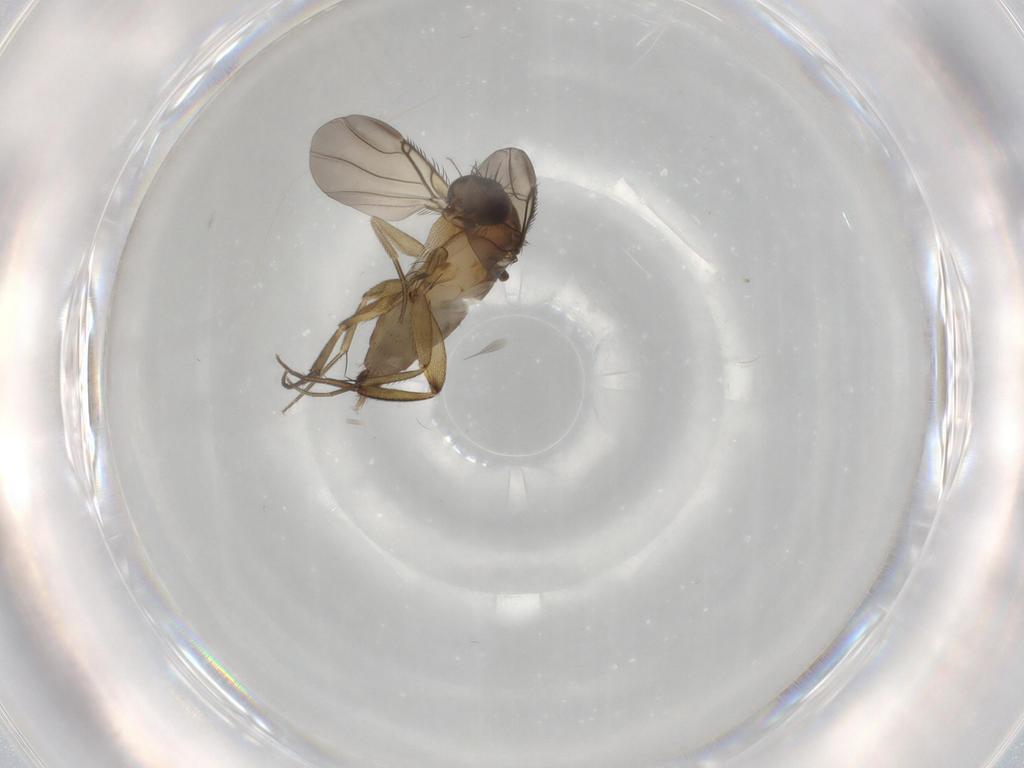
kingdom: Animalia
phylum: Arthropoda
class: Insecta
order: Diptera
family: Phoridae
